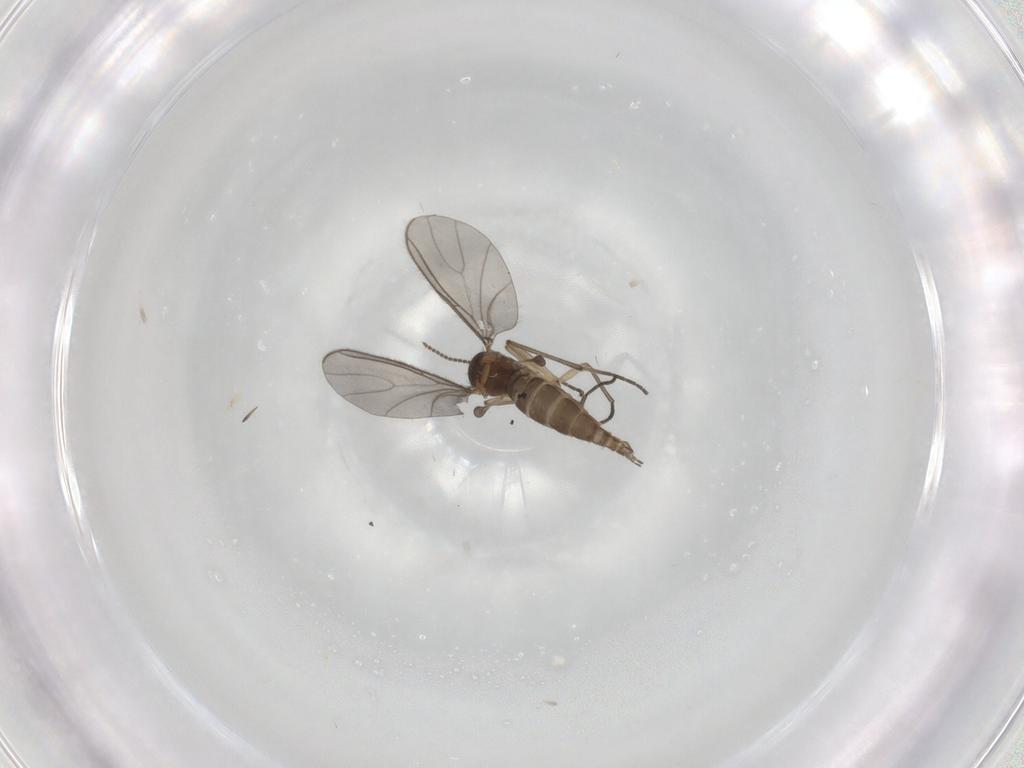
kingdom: Animalia
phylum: Arthropoda
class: Insecta
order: Diptera
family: Sciaridae
